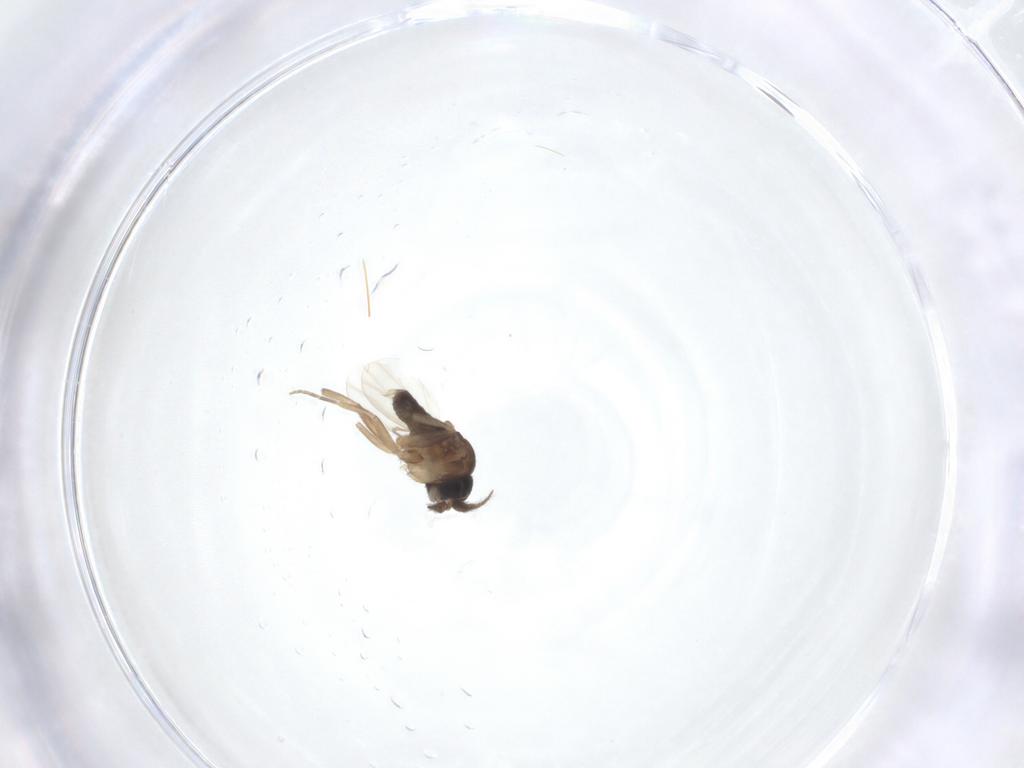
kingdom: Animalia
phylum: Arthropoda
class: Insecta
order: Diptera
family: Phoridae
